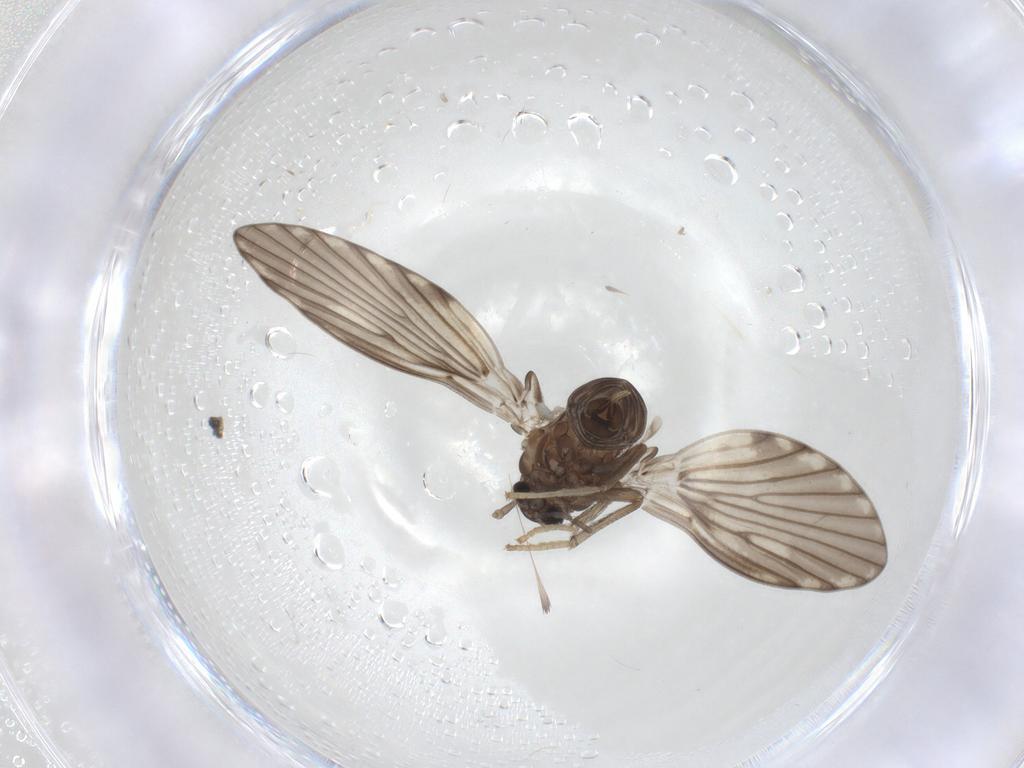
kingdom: Animalia
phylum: Arthropoda
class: Insecta
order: Diptera
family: Psychodidae
